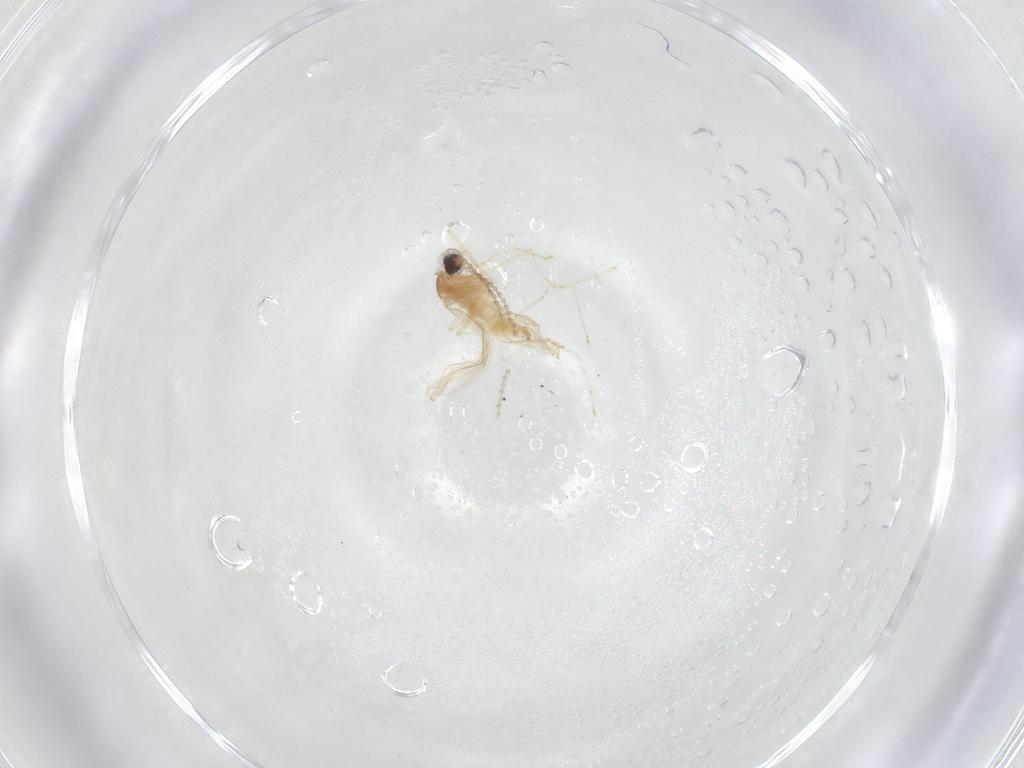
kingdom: Animalia
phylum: Arthropoda
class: Insecta
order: Diptera
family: Cecidomyiidae
